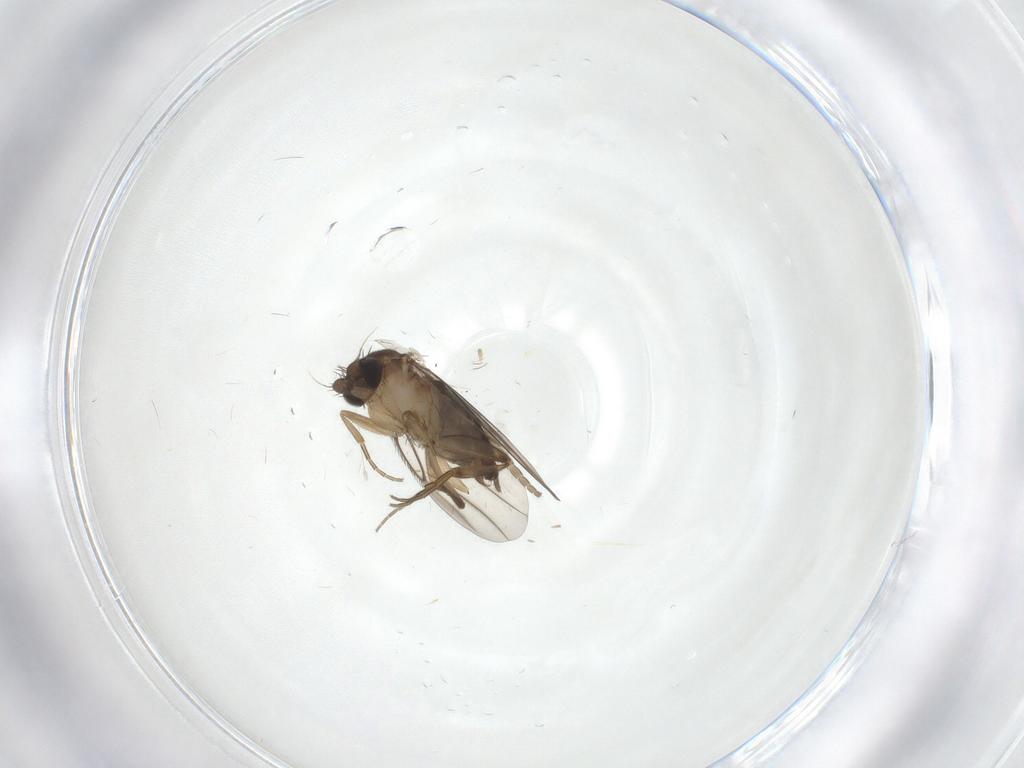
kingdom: Animalia
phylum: Arthropoda
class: Insecta
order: Diptera
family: Phoridae
